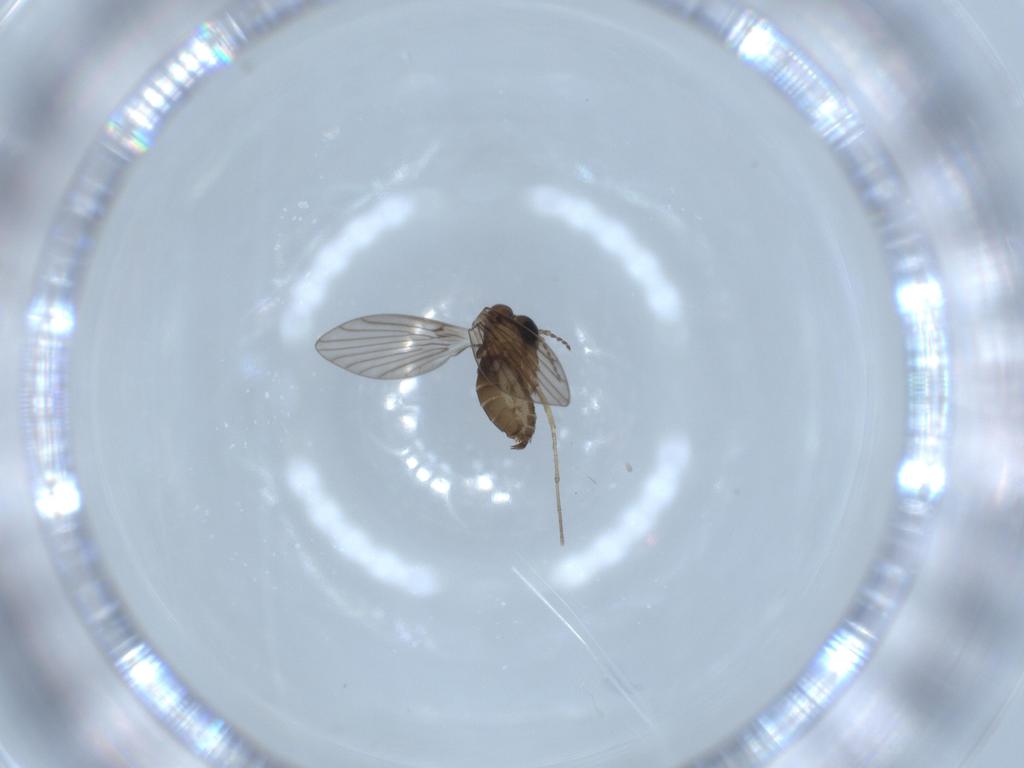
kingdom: Animalia
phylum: Arthropoda
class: Insecta
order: Diptera
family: Psychodidae
